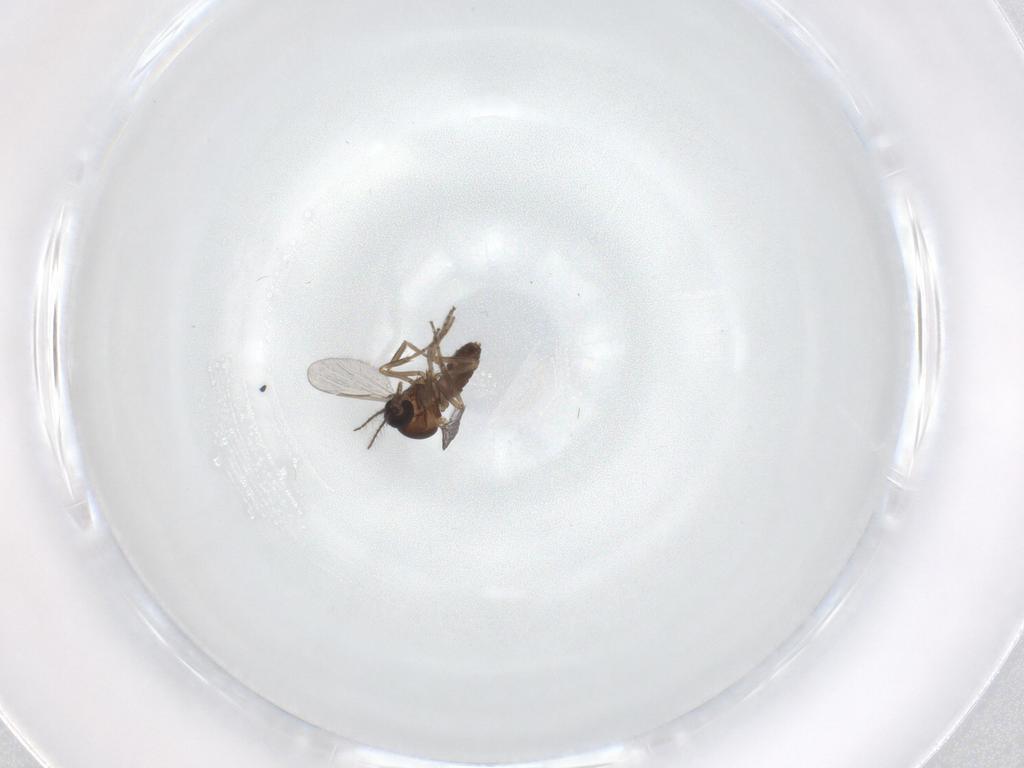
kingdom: Animalia
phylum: Arthropoda
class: Insecta
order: Diptera
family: Ceratopogonidae
